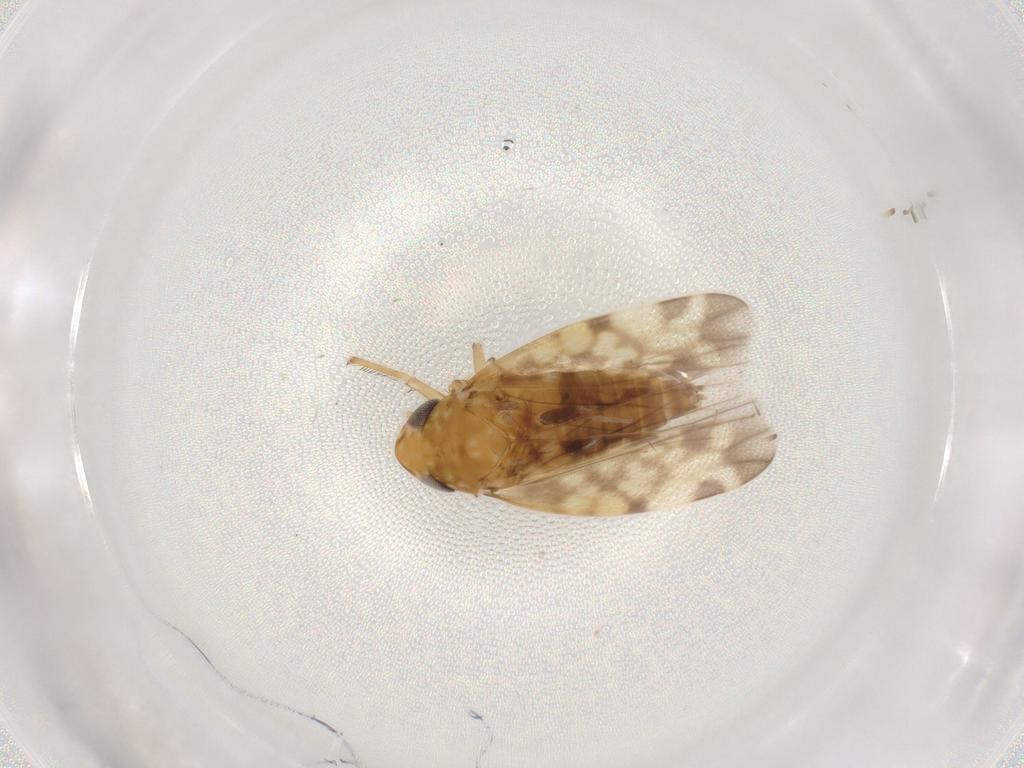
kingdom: Animalia
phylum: Arthropoda
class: Insecta
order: Hemiptera
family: Cicadellidae
